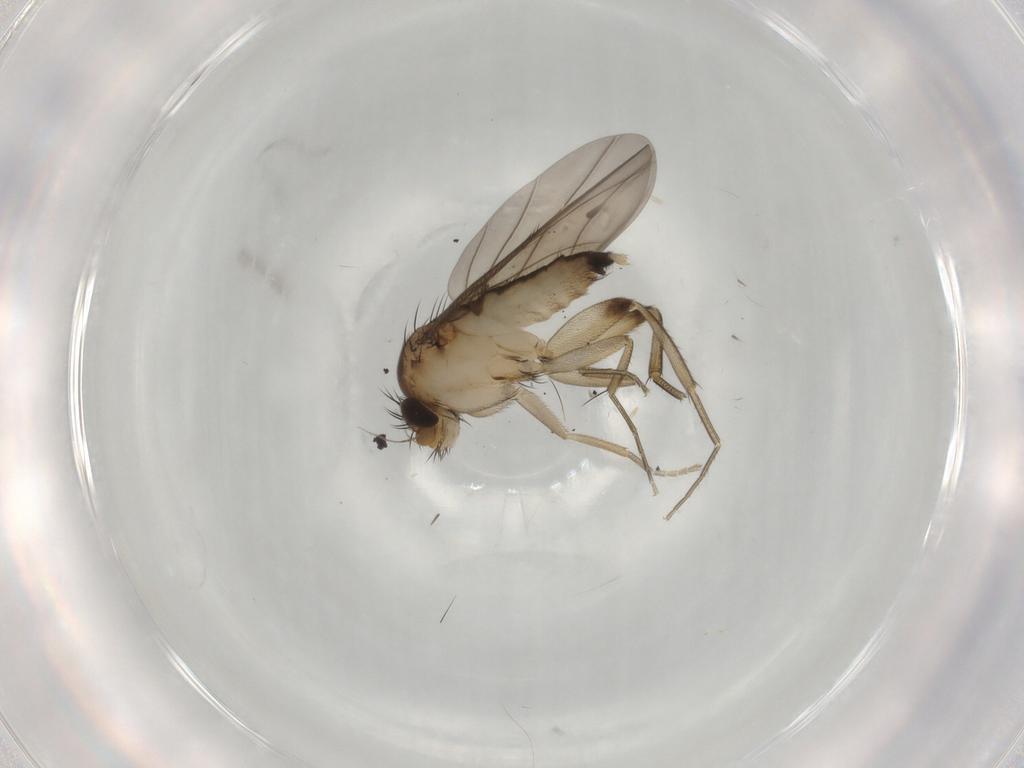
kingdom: Animalia
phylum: Arthropoda
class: Insecta
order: Diptera
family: Phoridae
